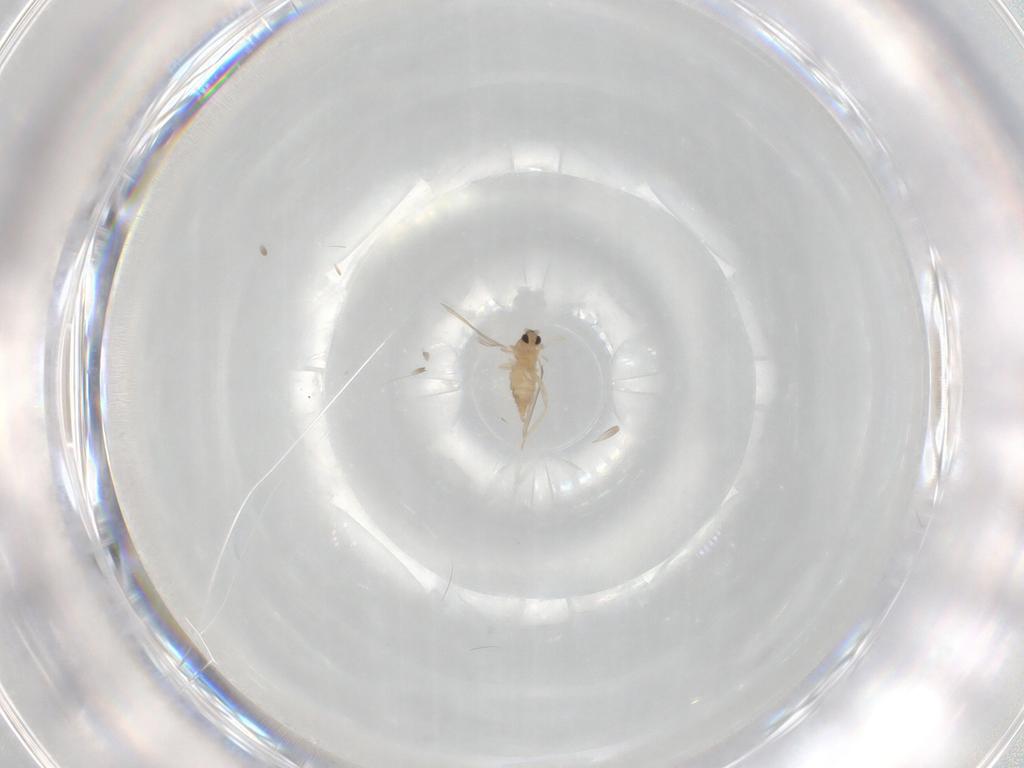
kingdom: Animalia
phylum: Arthropoda
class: Insecta
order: Diptera
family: Cecidomyiidae
